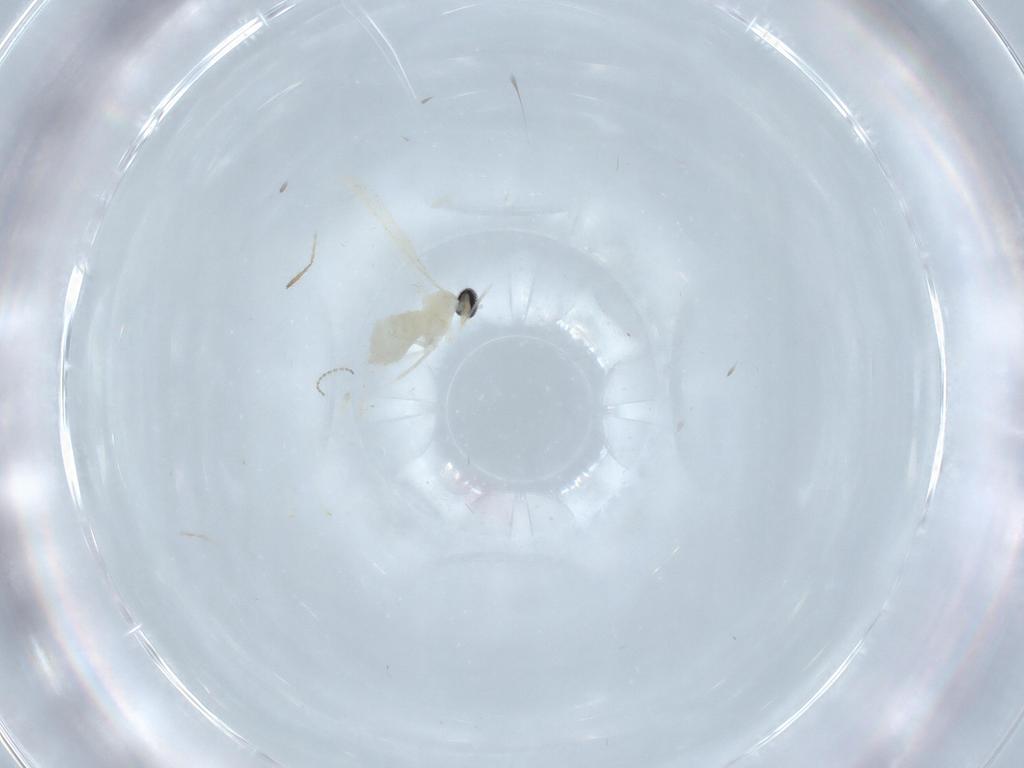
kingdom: Animalia
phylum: Arthropoda
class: Insecta
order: Diptera
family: Cecidomyiidae
